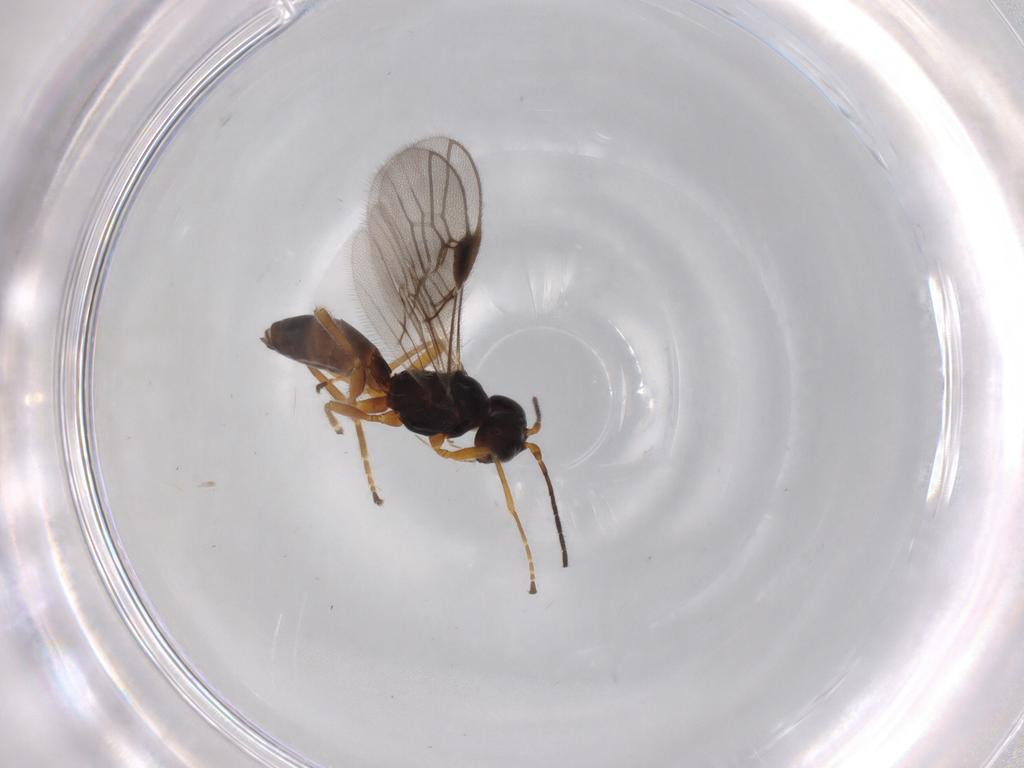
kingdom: Animalia
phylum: Arthropoda
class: Insecta
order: Hymenoptera
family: Braconidae
